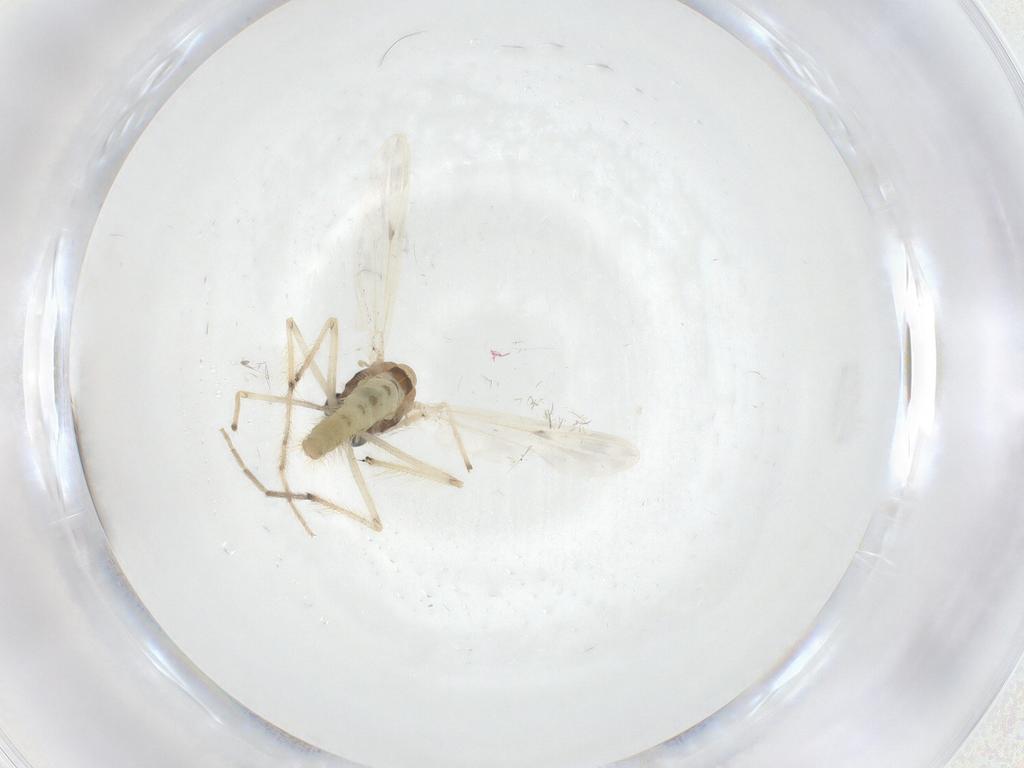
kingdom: Animalia
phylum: Arthropoda
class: Insecta
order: Diptera
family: Chironomidae
